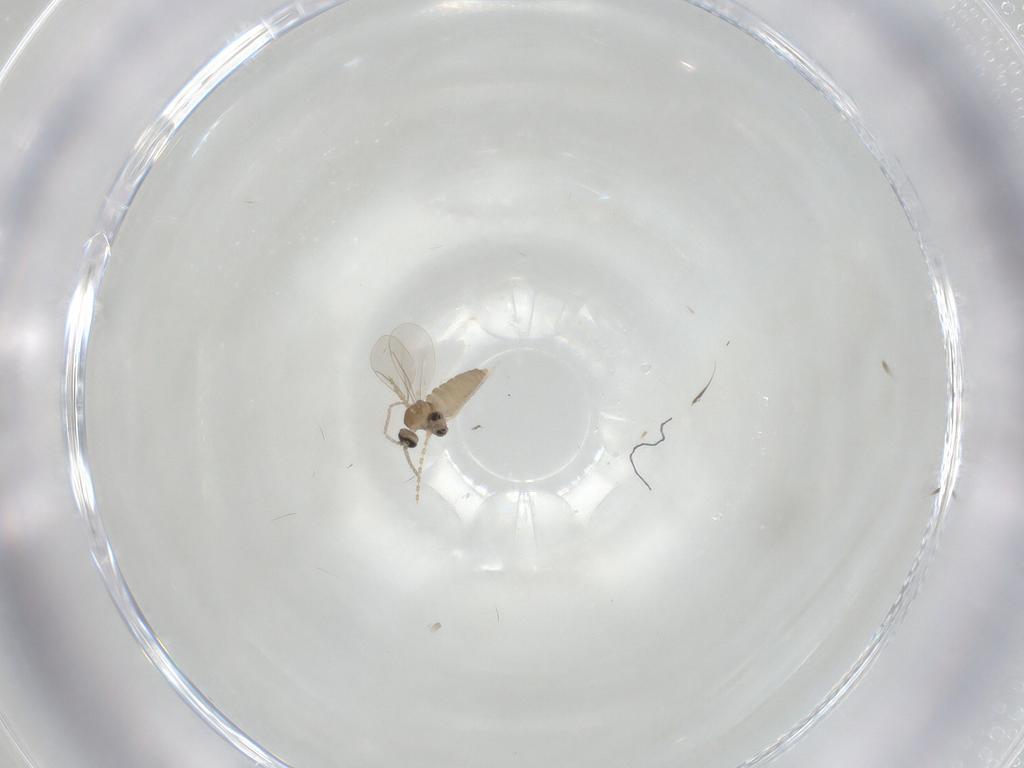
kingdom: Animalia
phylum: Arthropoda
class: Insecta
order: Diptera
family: Cecidomyiidae
